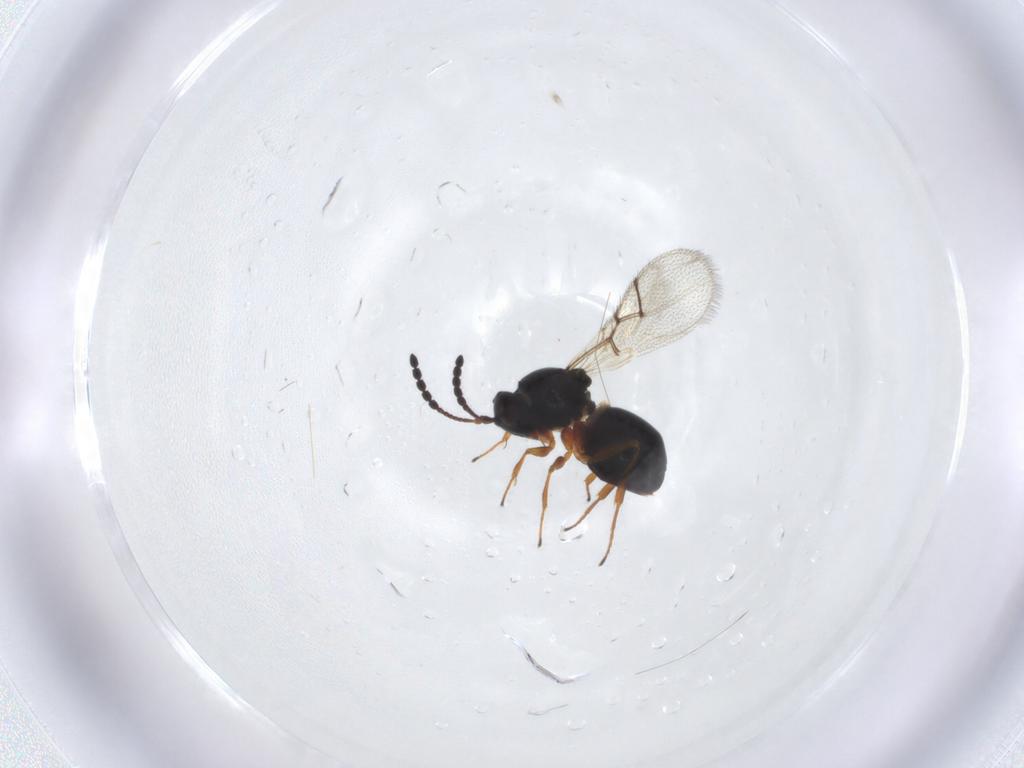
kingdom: Animalia
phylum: Arthropoda
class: Insecta
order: Hymenoptera
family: Figitidae
